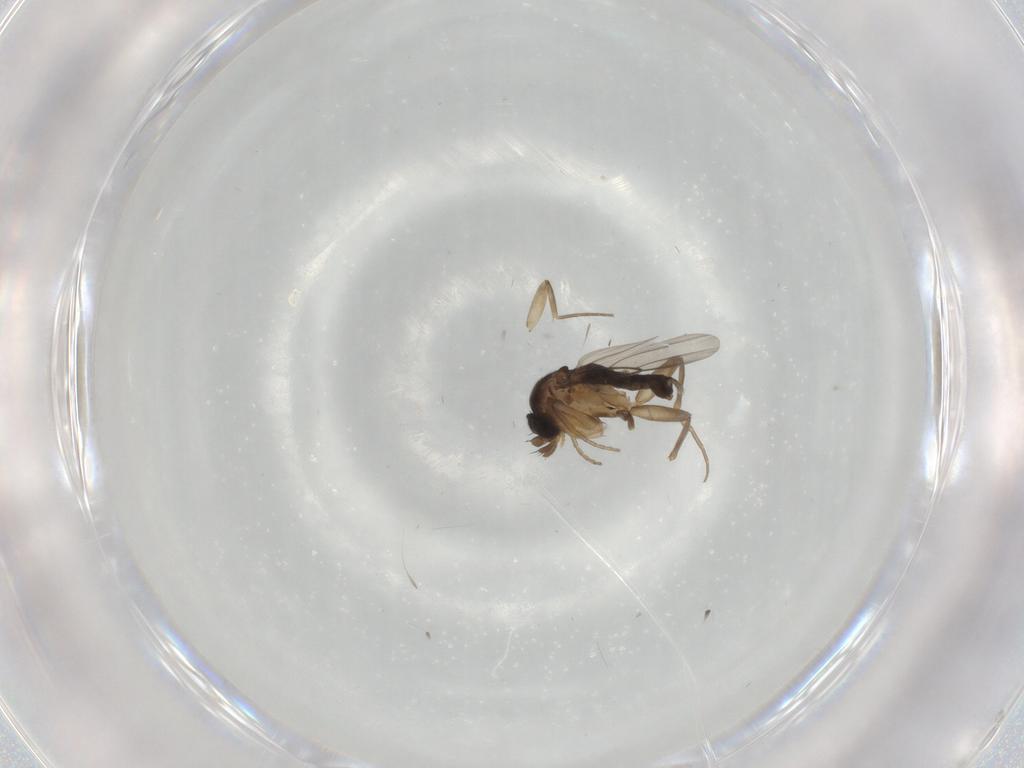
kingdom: Animalia
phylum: Arthropoda
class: Insecta
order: Diptera
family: Phoridae
